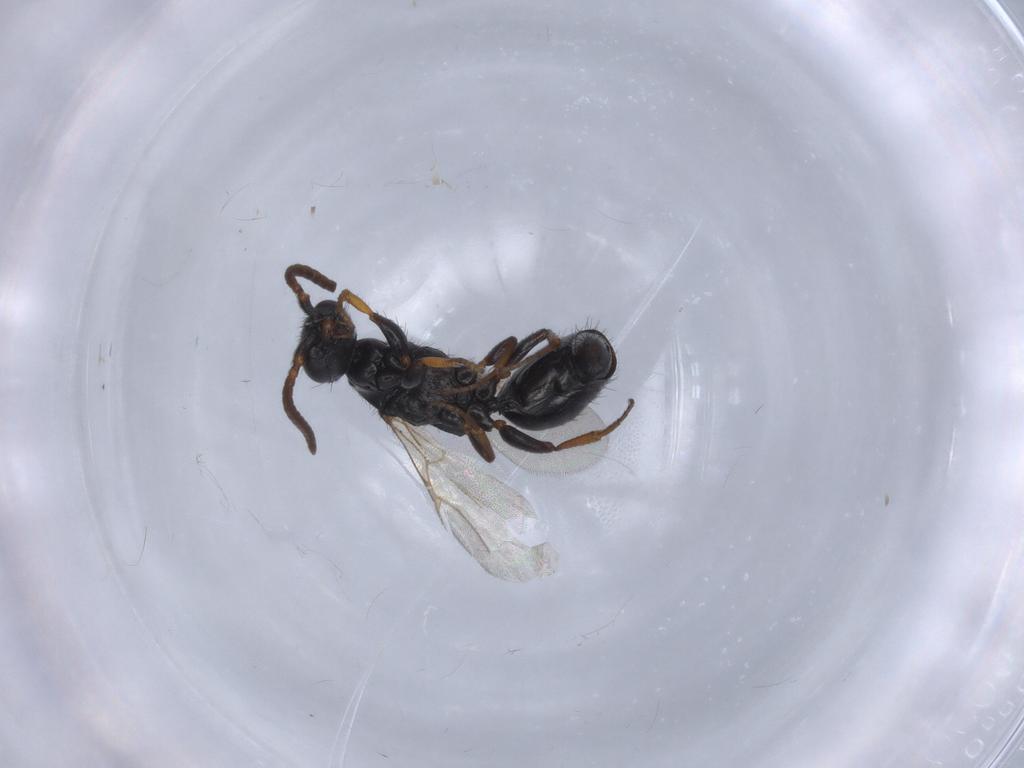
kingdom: Animalia
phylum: Arthropoda
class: Insecta
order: Hymenoptera
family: Bethylidae
